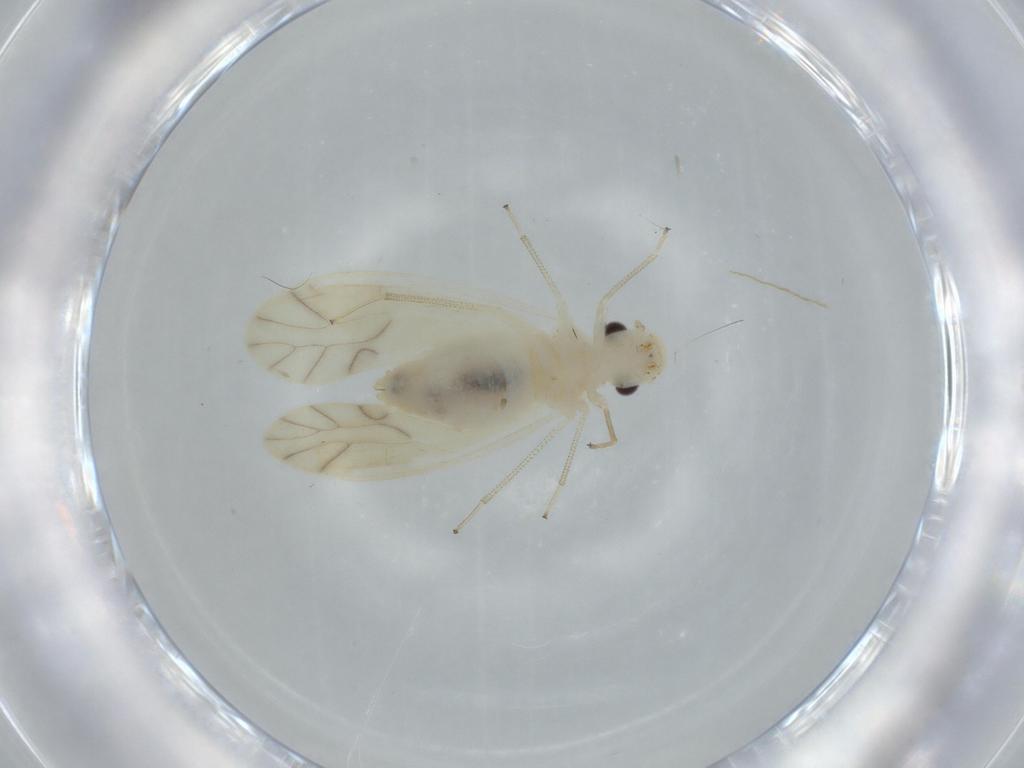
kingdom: Animalia
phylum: Arthropoda
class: Insecta
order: Psocodea
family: Caeciliusidae
